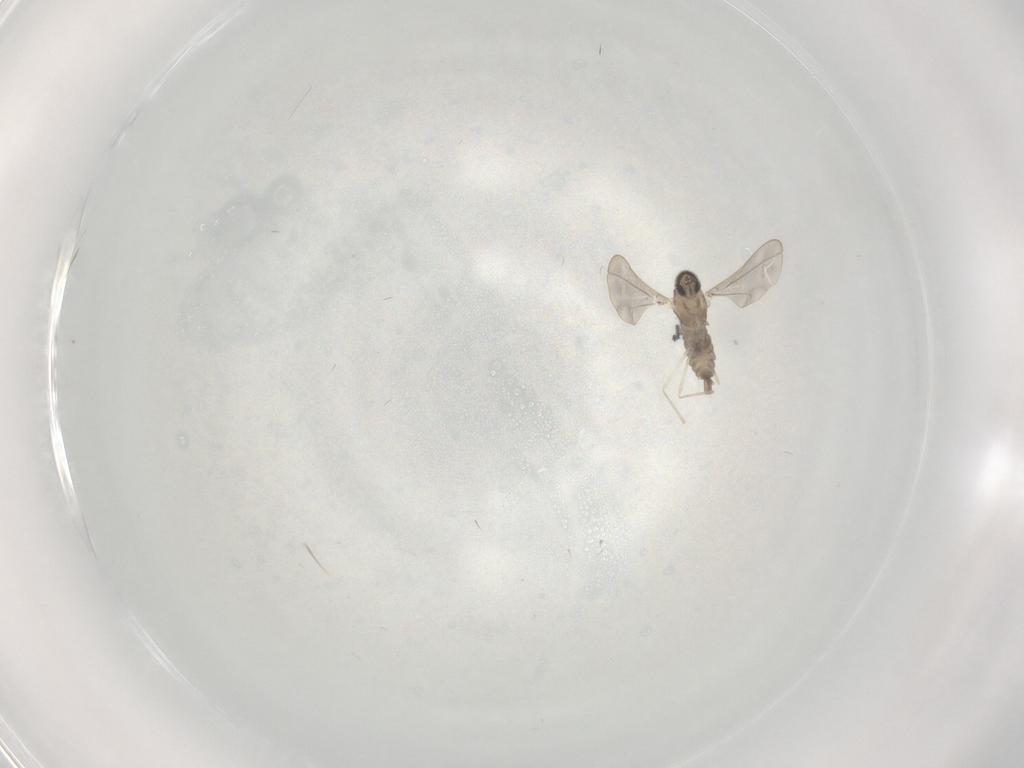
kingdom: Animalia
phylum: Arthropoda
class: Insecta
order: Diptera
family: Cecidomyiidae
